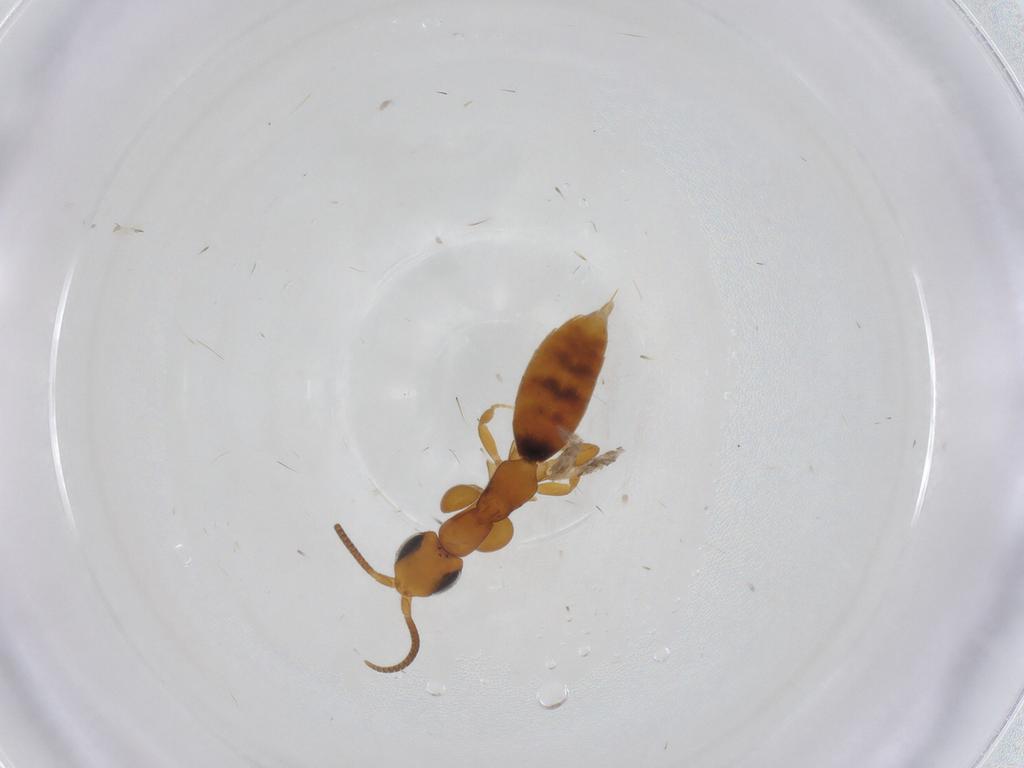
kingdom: Animalia
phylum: Arthropoda
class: Insecta
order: Hymenoptera
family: Sclerogibbidae
